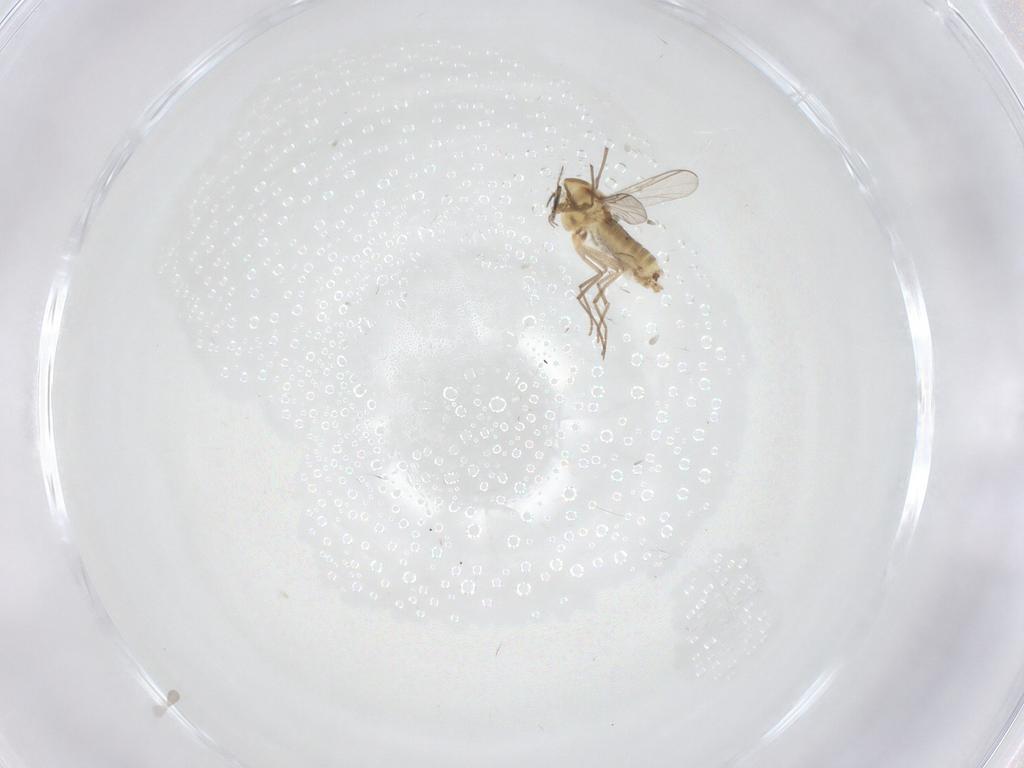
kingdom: Animalia
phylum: Arthropoda
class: Insecta
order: Diptera
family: Chironomidae
